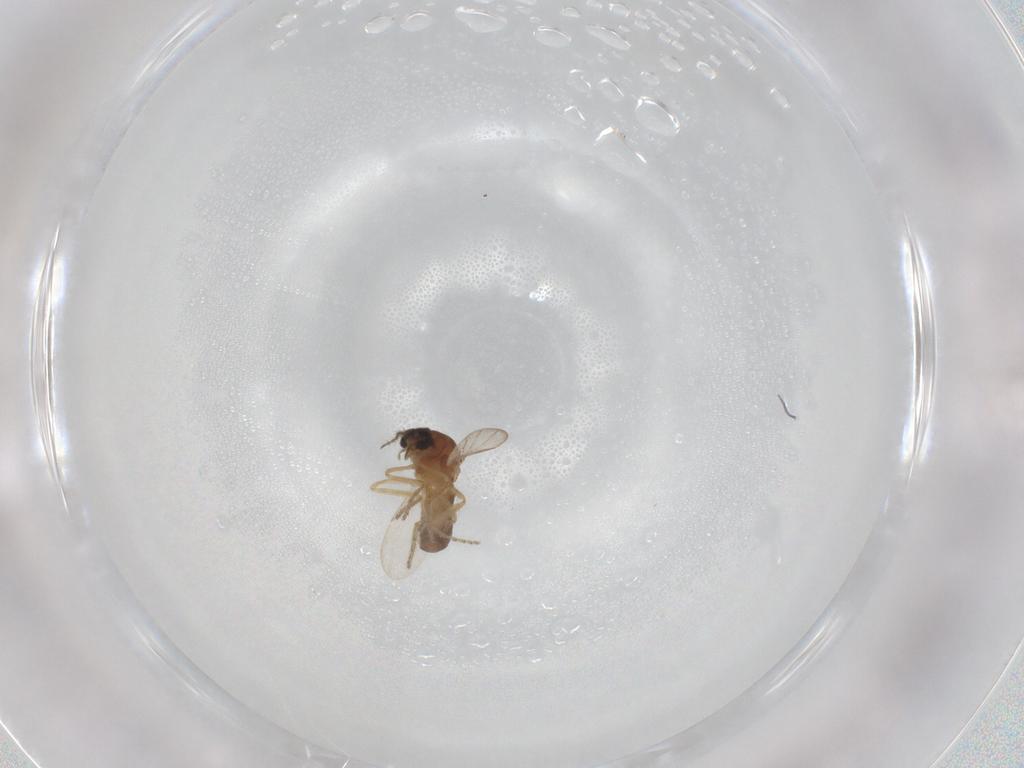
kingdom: Animalia
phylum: Arthropoda
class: Insecta
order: Diptera
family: Ceratopogonidae
